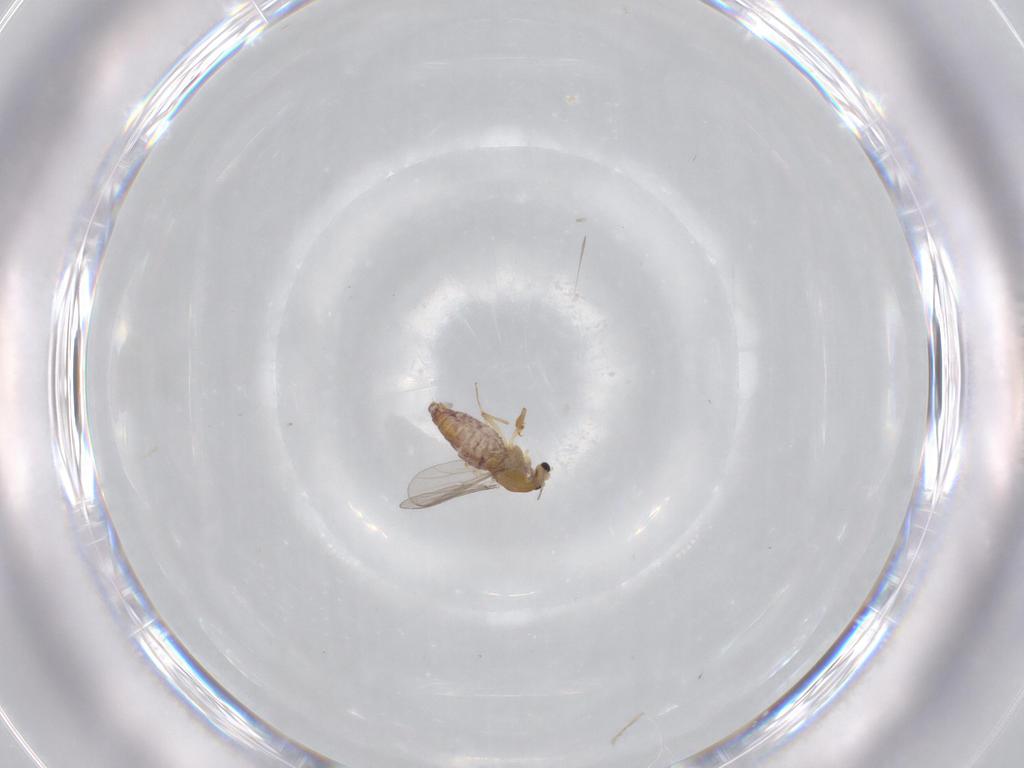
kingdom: Animalia
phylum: Arthropoda
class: Insecta
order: Diptera
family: Chironomidae
